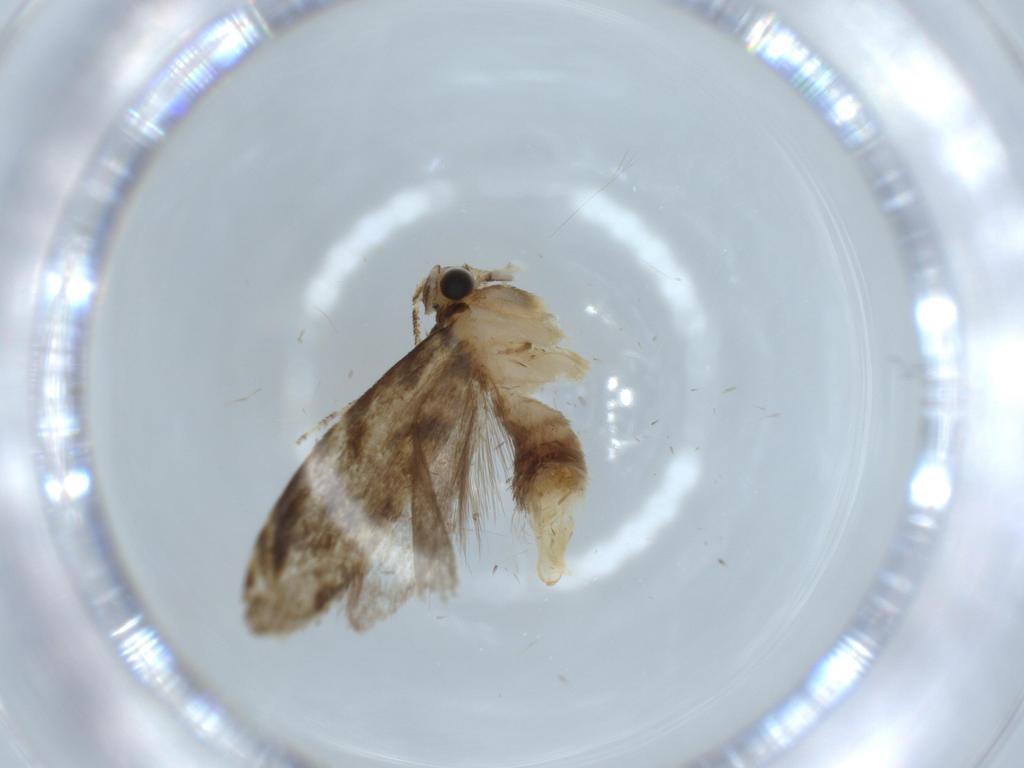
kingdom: Animalia
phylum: Arthropoda
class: Insecta
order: Lepidoptera
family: Tineidae
